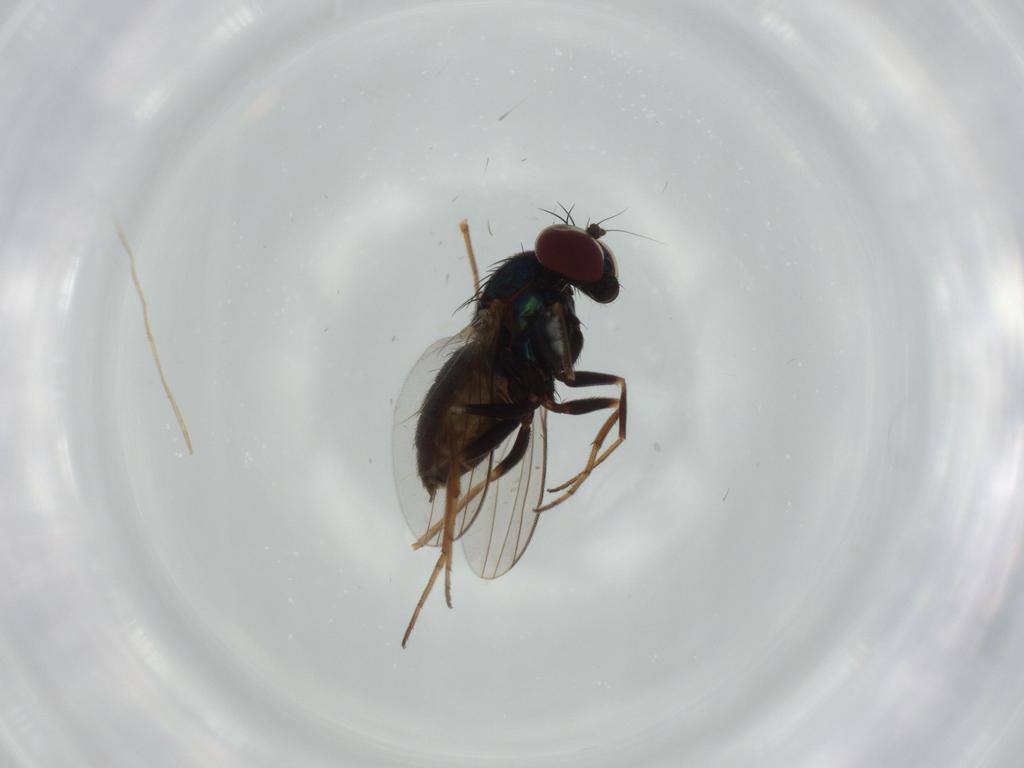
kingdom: Animalia
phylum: Arthropoda
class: Insecta
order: Diptera
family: Dolichopodidae
